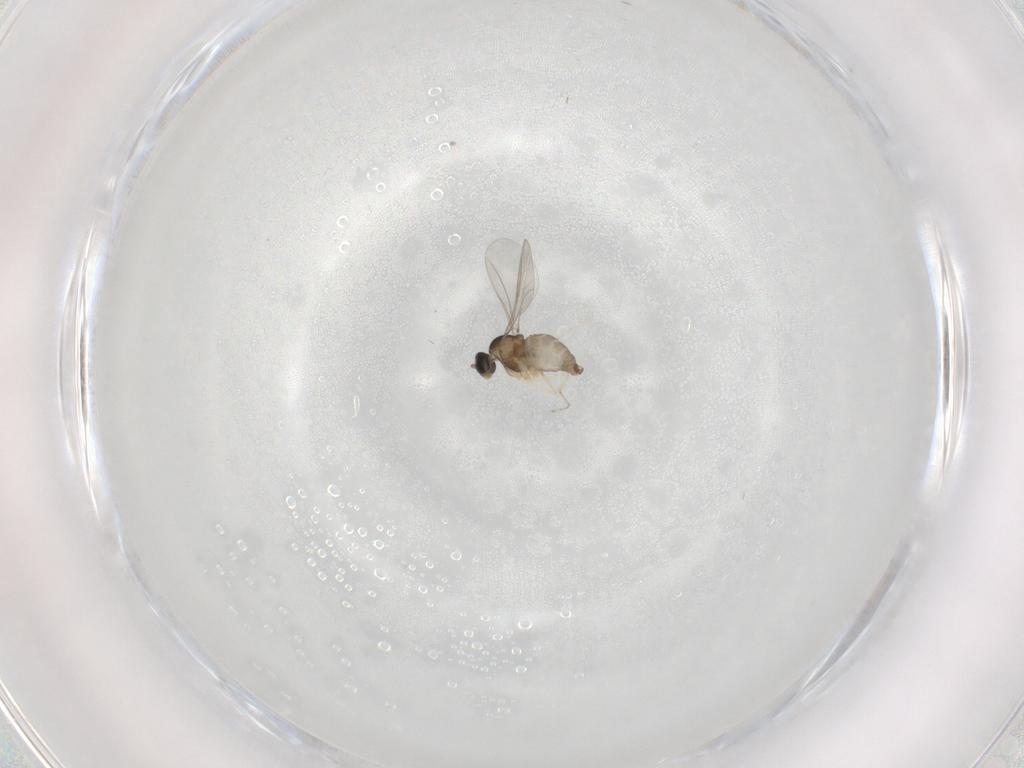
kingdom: Animalia
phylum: Arthropoda
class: Insecta
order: Diptera
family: Cecidomyiidae
